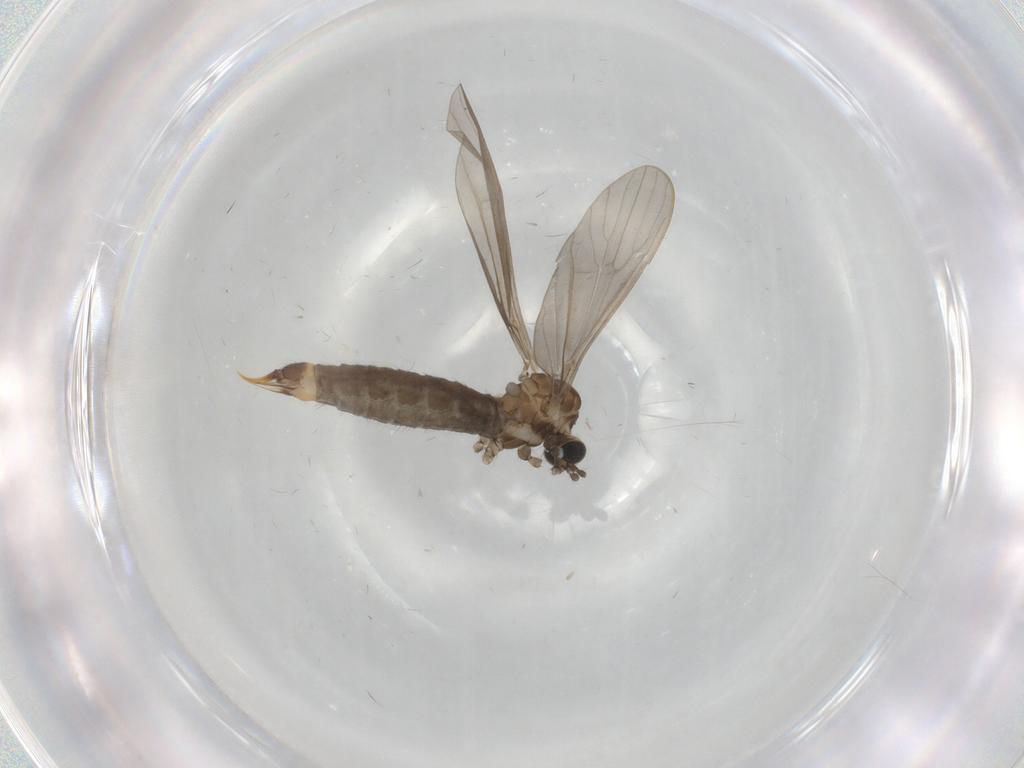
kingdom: Animalia
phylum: Arthropoda
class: Insecta
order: Diptera
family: Limoniidae
